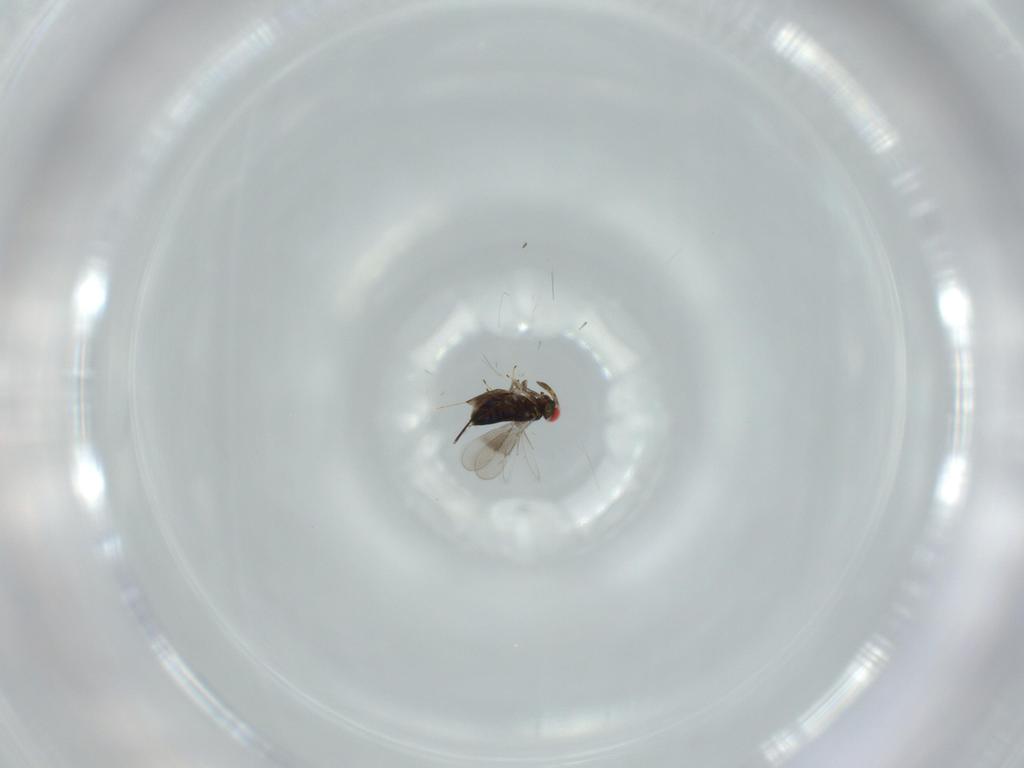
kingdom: Animalia
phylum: Arthropoda
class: Insecta
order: Hymenoptera
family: Azotidae
